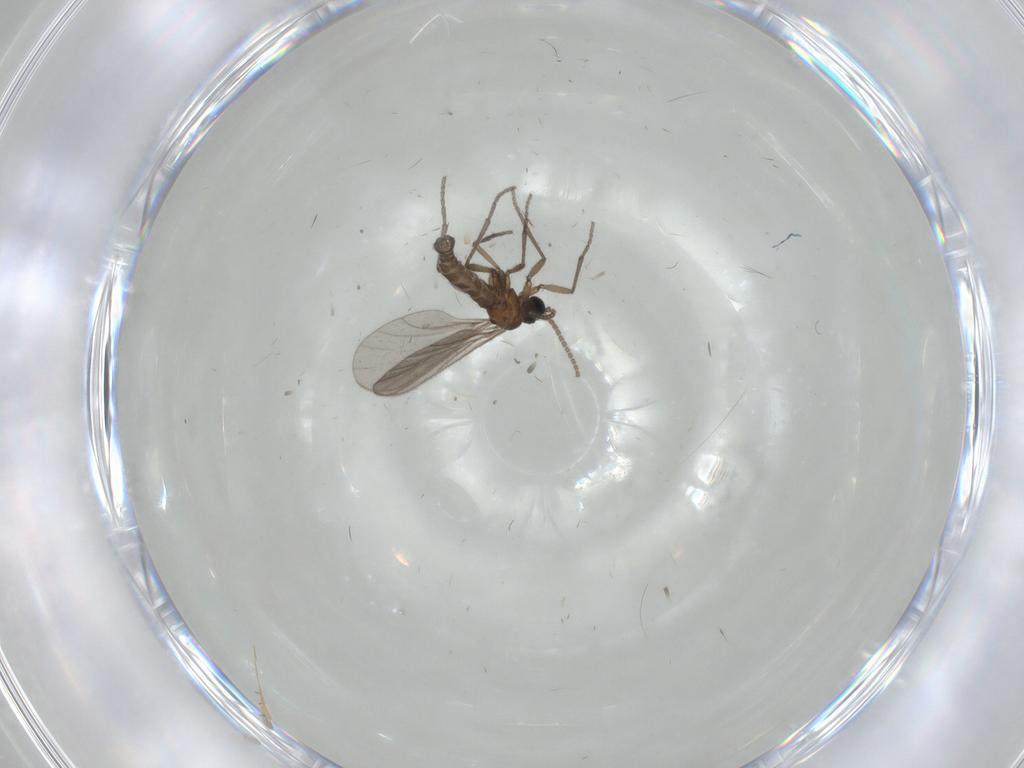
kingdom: Animalia
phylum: Arthropoda
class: Insecta
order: Diptera
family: Sciaridae
